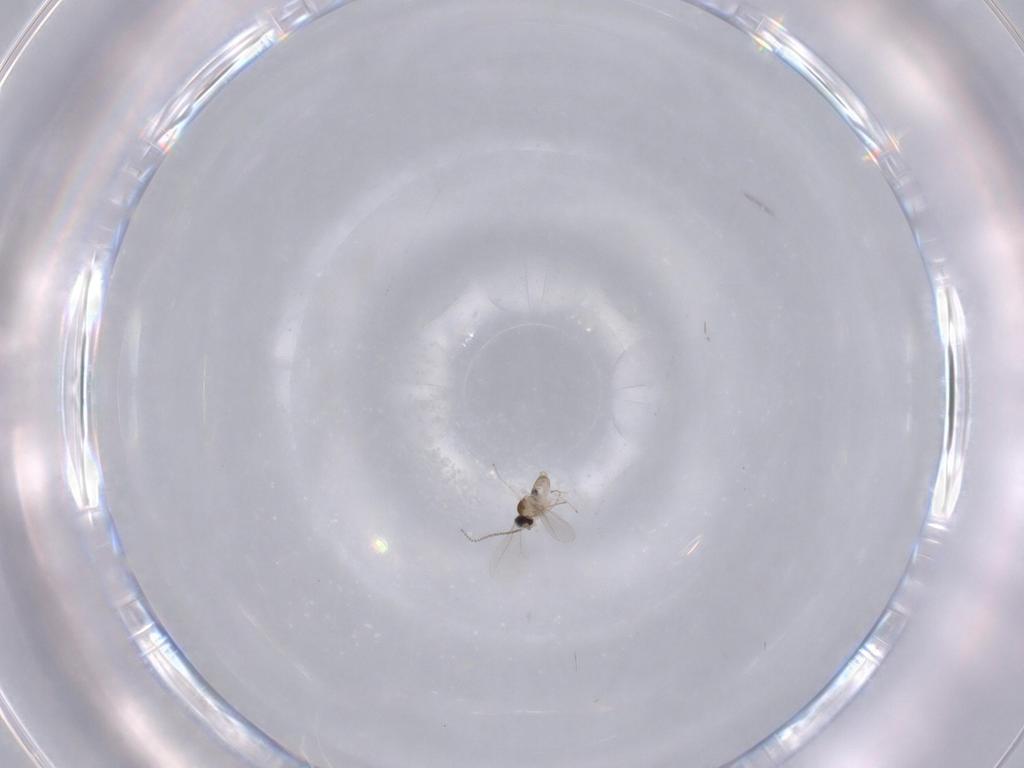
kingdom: Animalia
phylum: Arthropoda
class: Insecta
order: Diptera
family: Cecidomyiidae
